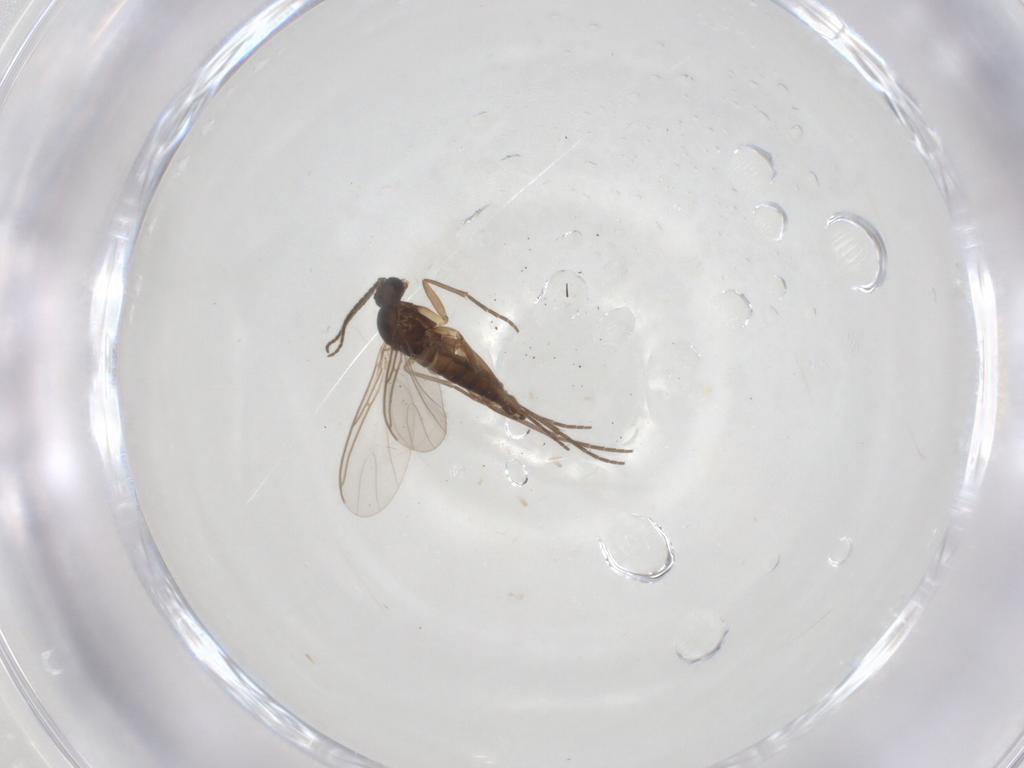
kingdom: Animalia
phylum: Arthropoda
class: Insecta
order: Diptera
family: Sciaridae
